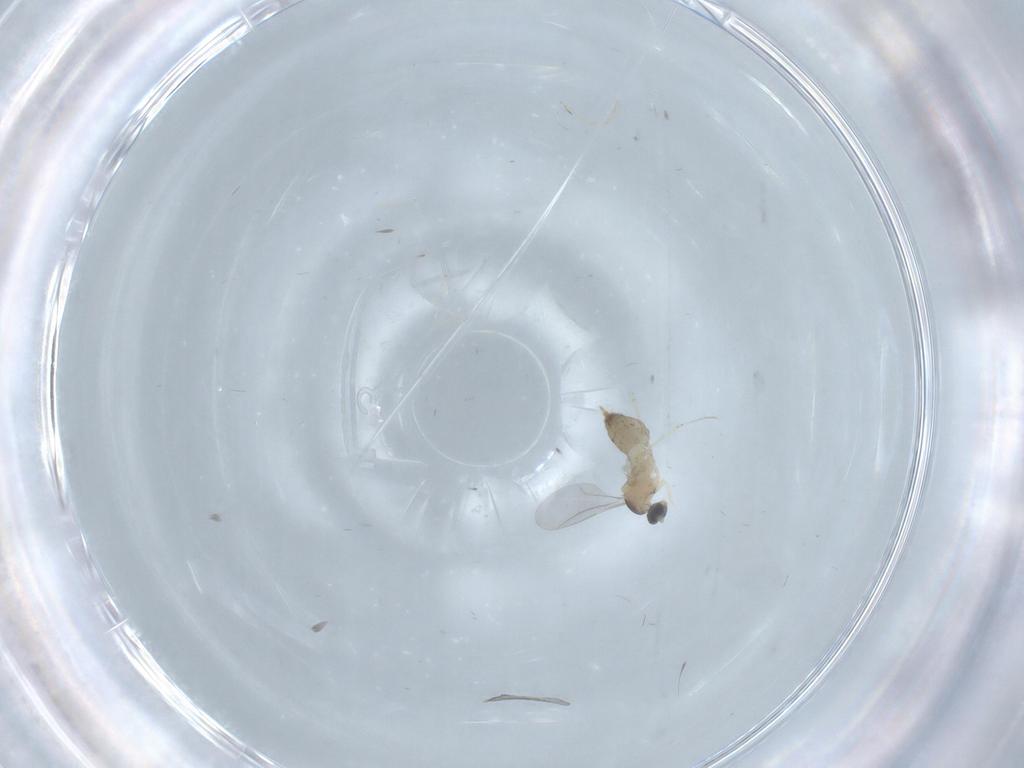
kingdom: Animalia
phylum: Arthropoda
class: Insecta
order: Diptera
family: Cecidomyiidae
